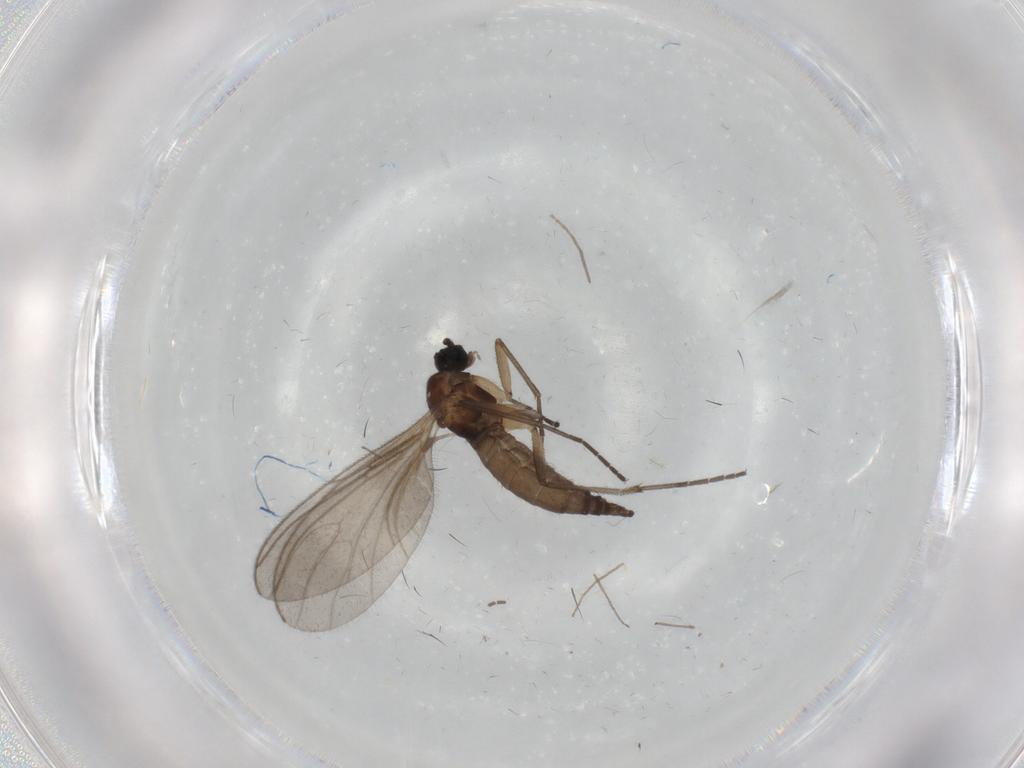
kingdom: Animalia
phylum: Arthropoda
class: Insecta
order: Diptera
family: Sciaridae
